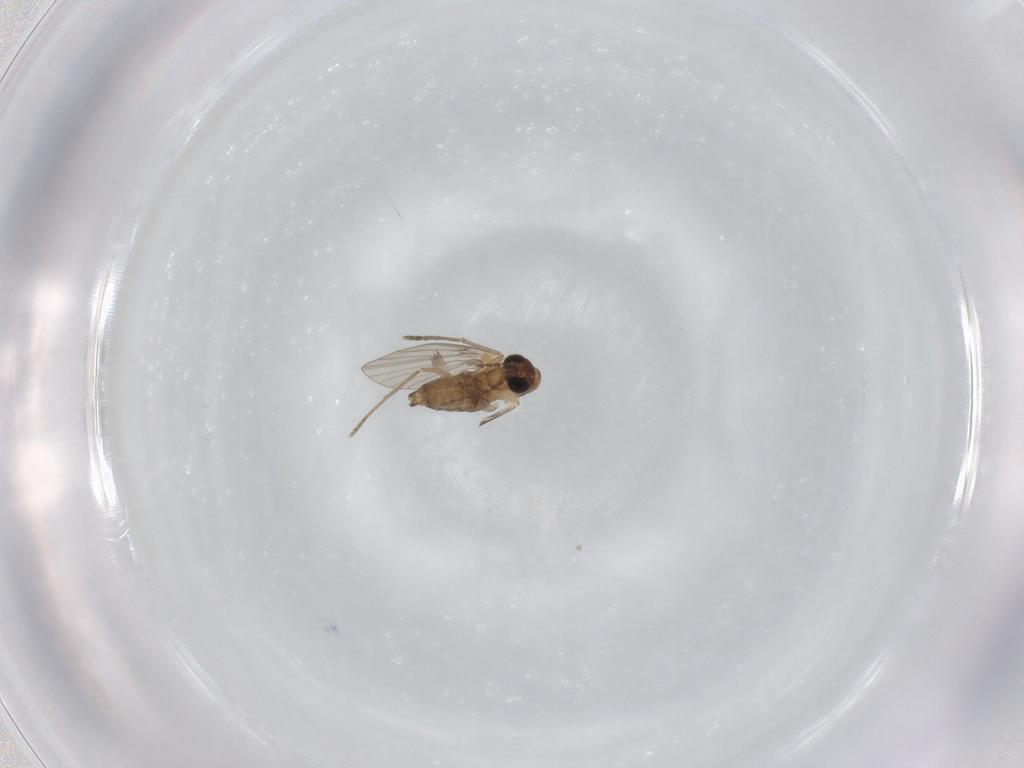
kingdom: Animalia
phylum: Arthropoda
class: Insecta
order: Diptera
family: Psychodidae
